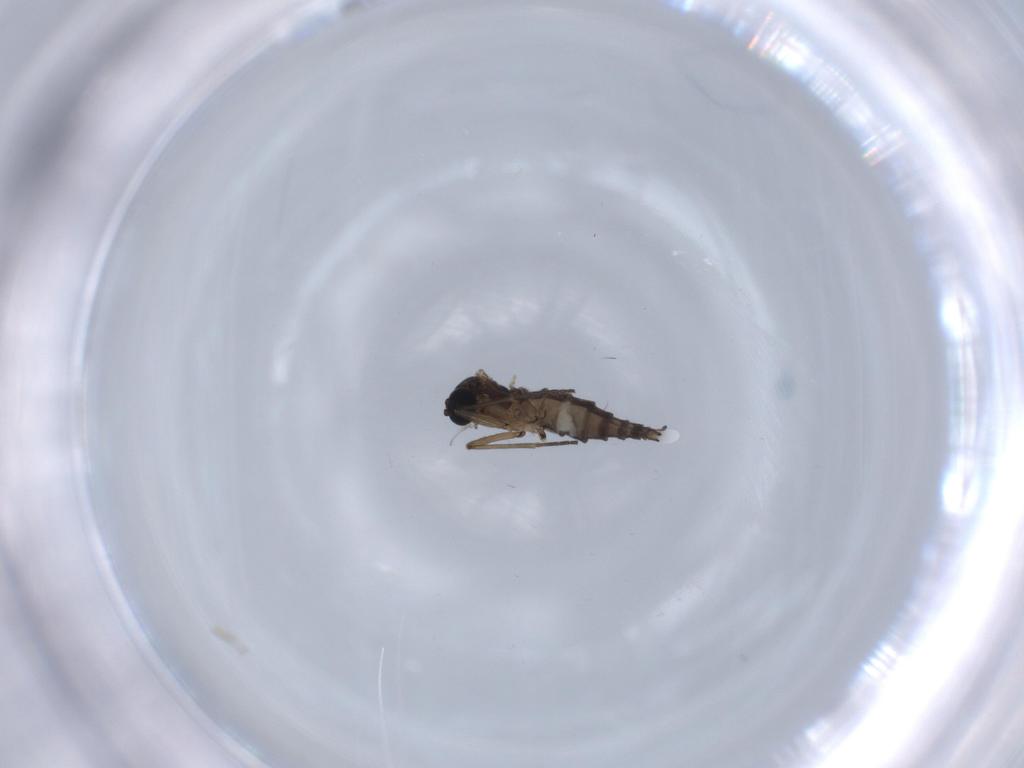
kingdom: Animalia
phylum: Arthropoda
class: Insecta
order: Diptera
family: Sciaridae
